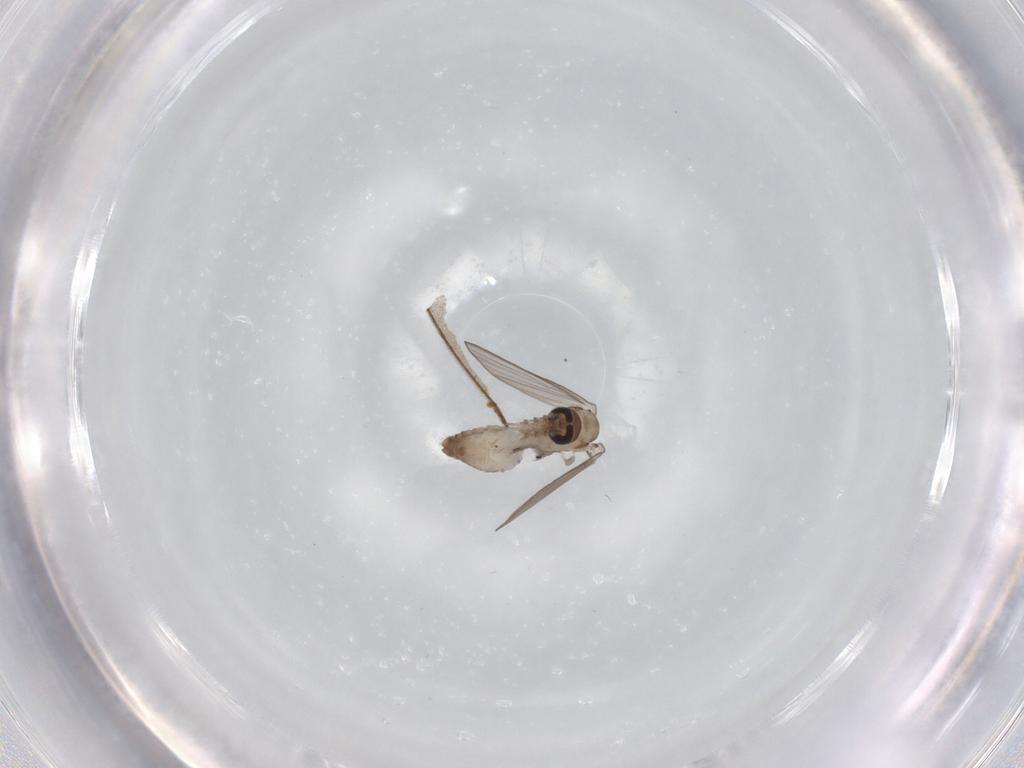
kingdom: Animalia
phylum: Arthropoda
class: Insecta
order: Diptera
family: Psychodidae
